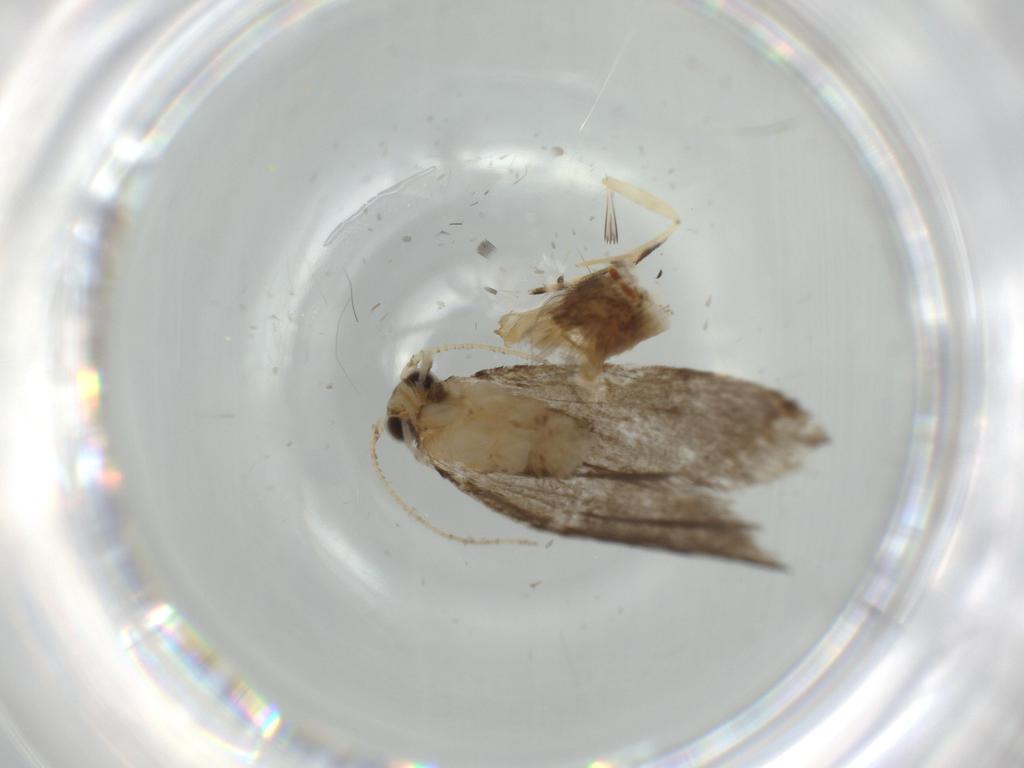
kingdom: Animalia
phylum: Arthropoda
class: Insecta
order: Lepidoptera
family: Tineidae
